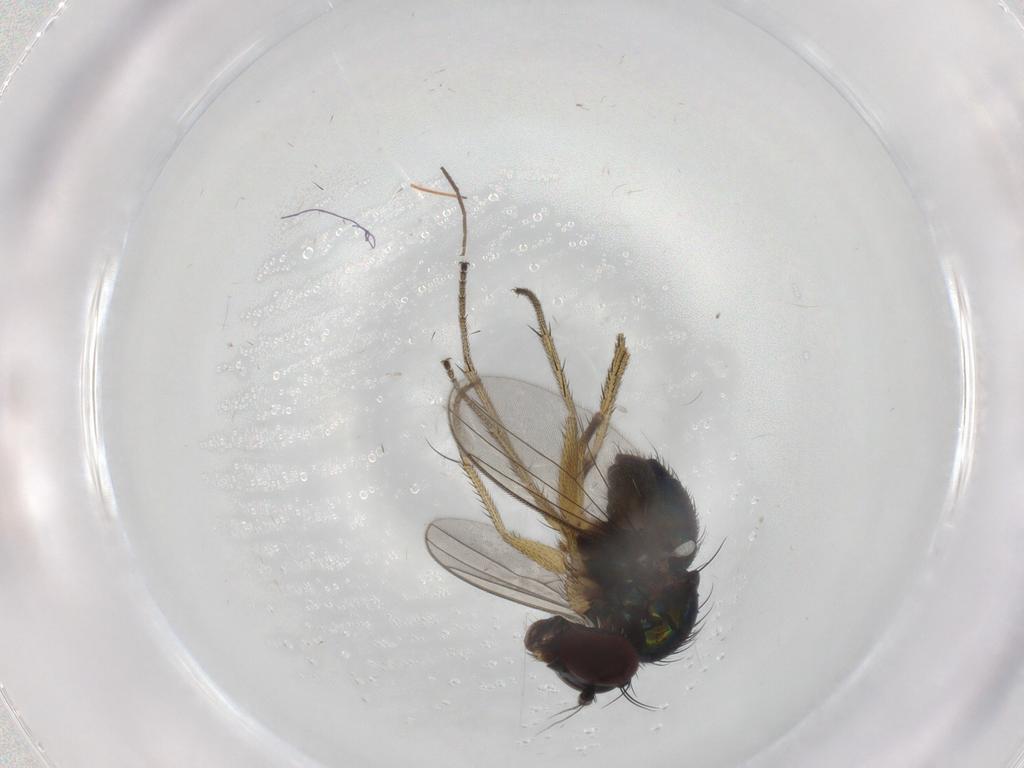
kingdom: Animalia
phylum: Arthropoda
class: Insecta
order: Diptera
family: Dolichopodidae
